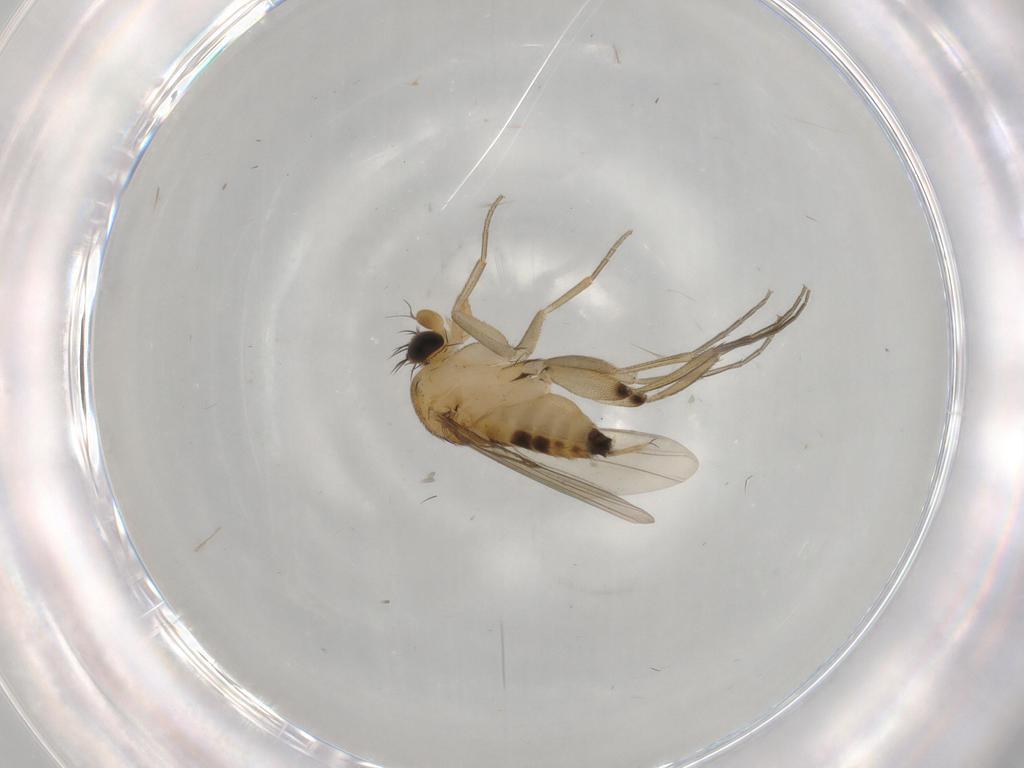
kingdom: Animalia
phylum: Arthropoda
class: Insecta
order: Diptera
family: Phoridae
